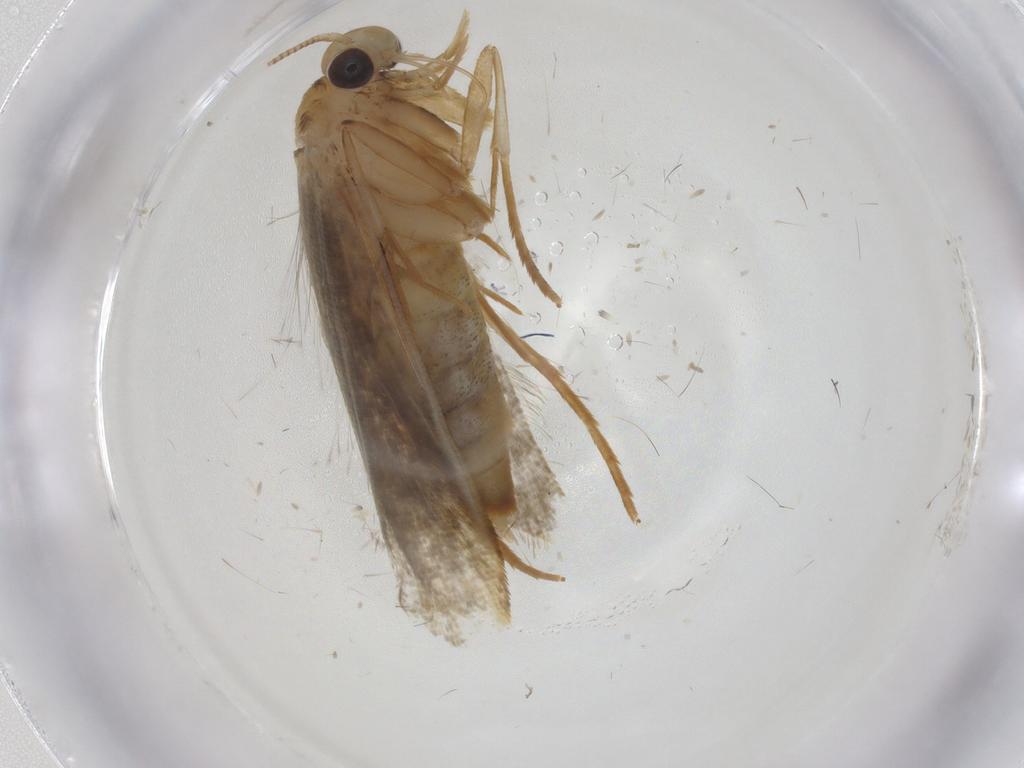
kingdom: Animalia
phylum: Arthropoda
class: Insecta
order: Lepidoptera
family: Tineidae
